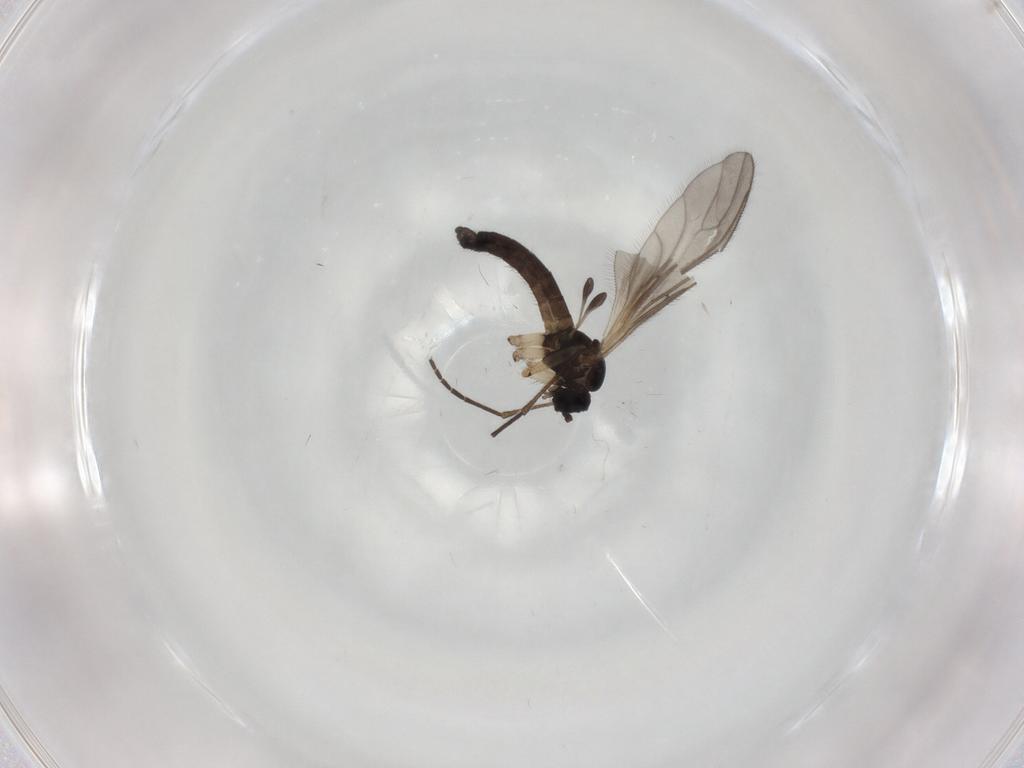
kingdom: Animalia
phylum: Arthropoda
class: Insecta
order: Diptera
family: Sciaridae
